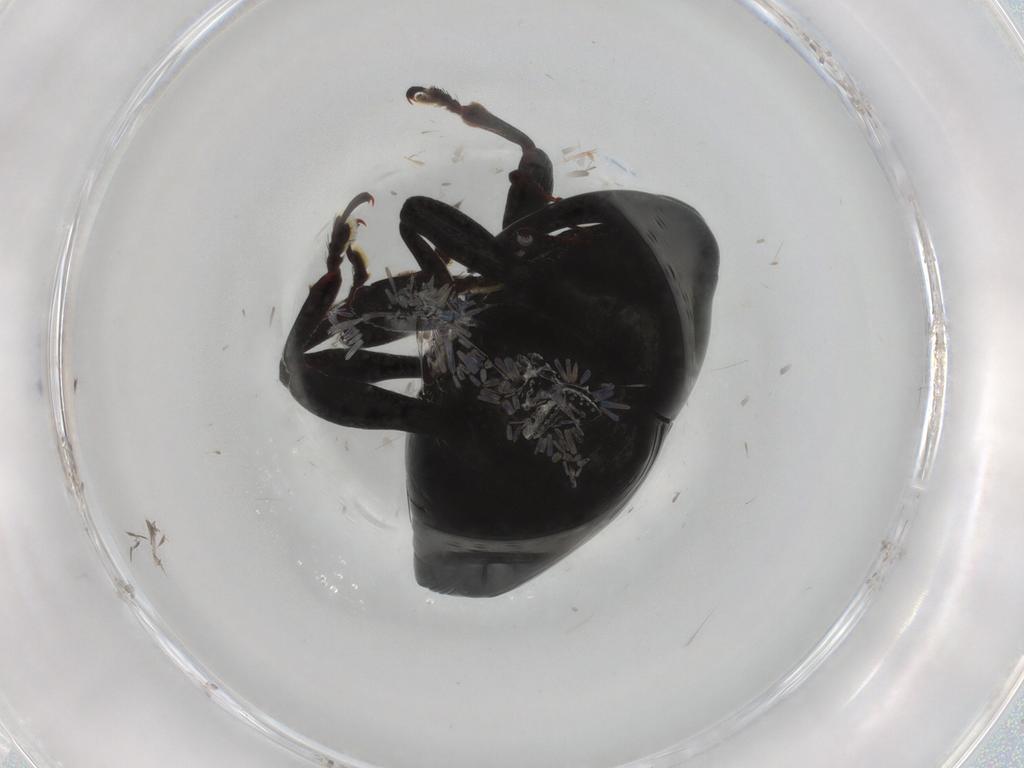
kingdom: Animalia
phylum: Arthropoda
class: Insecta
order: Coleoptera
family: Curculionidae
